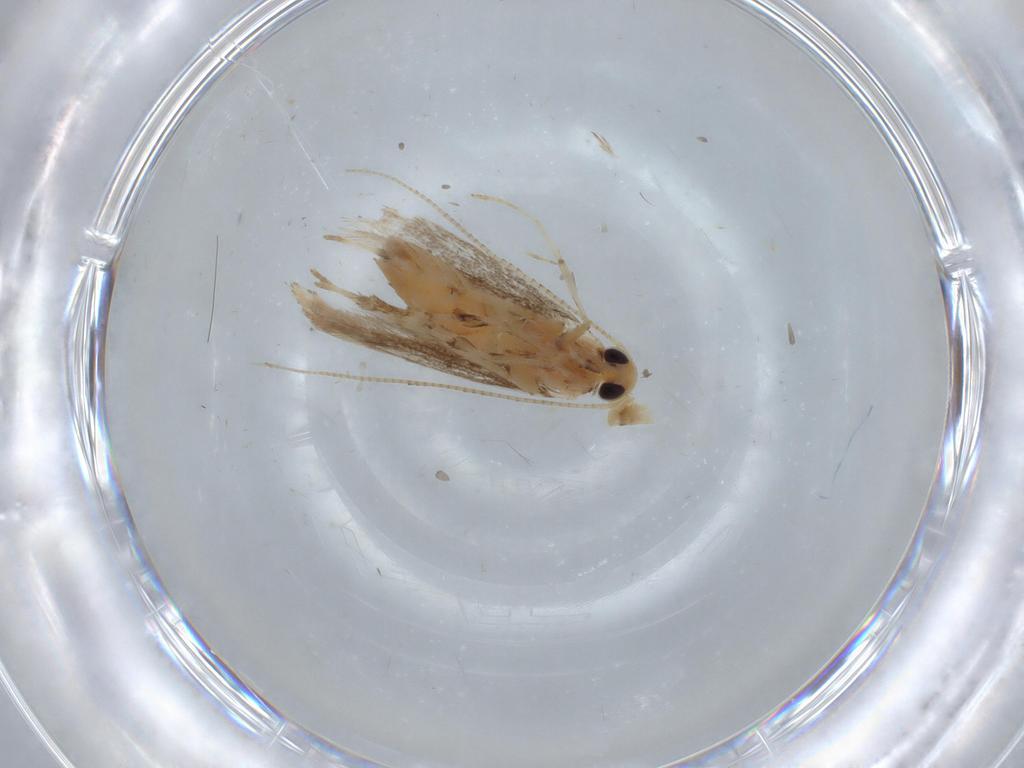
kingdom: Animalia
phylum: Arthropoda
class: Insecta
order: Lepidoptera
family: Gracillariidae
